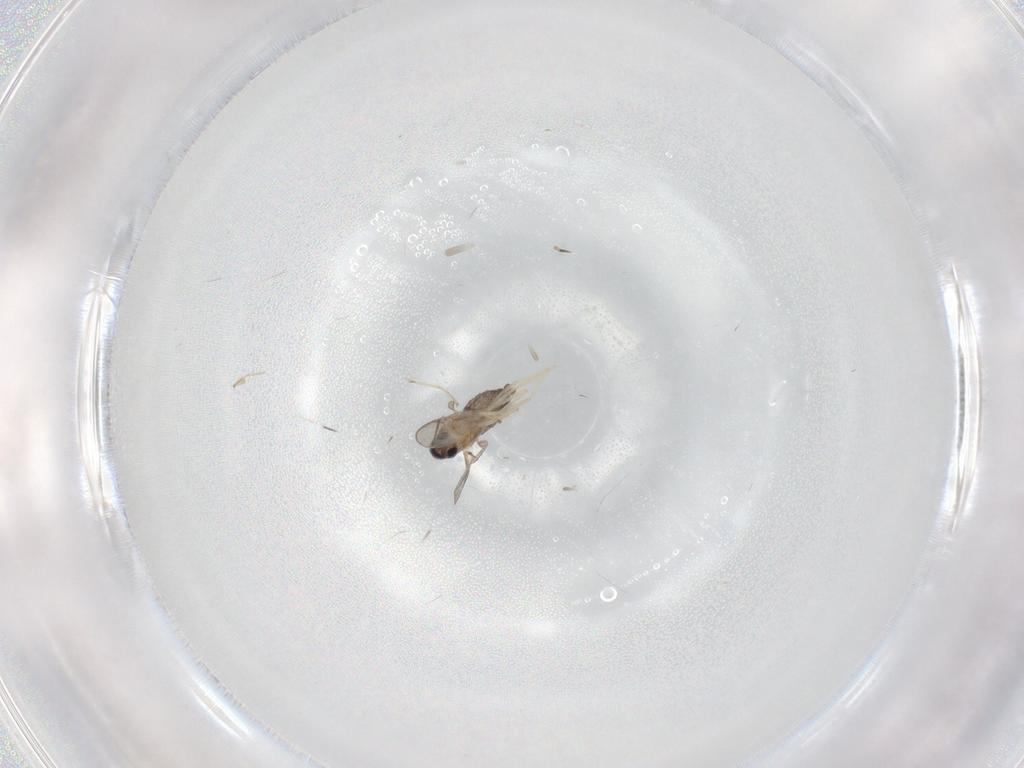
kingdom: Animalia
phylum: Arthropoda
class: Insecta
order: Diptera
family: Cecidomyiidae
